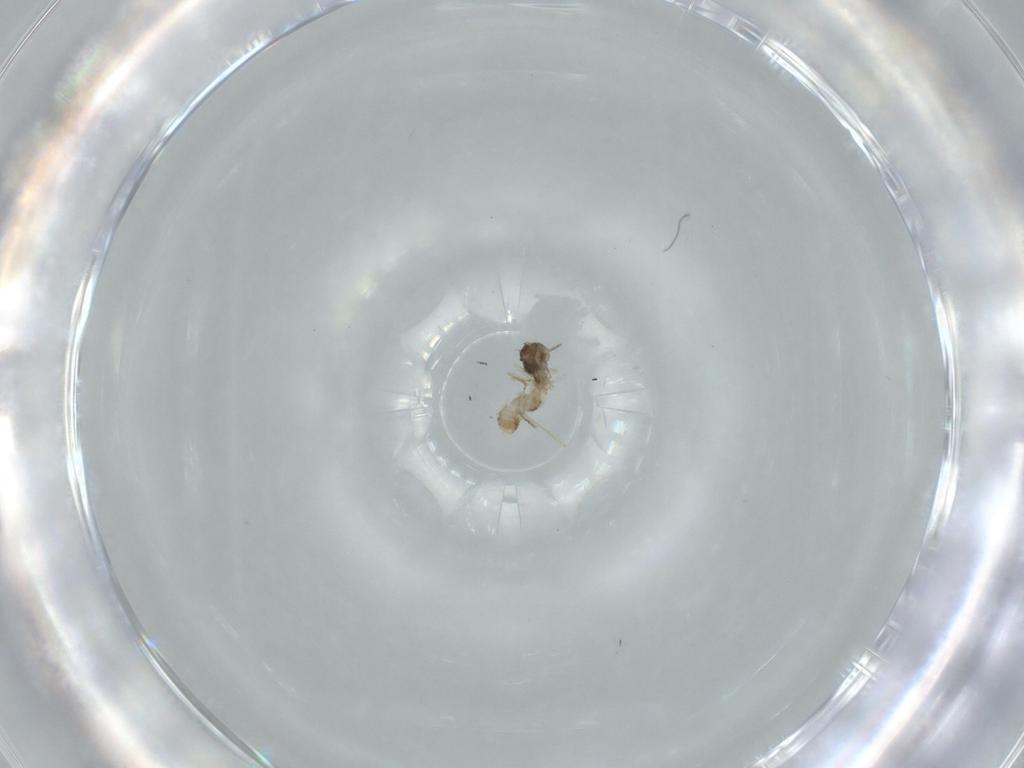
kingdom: Animalia
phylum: Arthropoda
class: Insecta
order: Diptera
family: Cecidomyiidae
